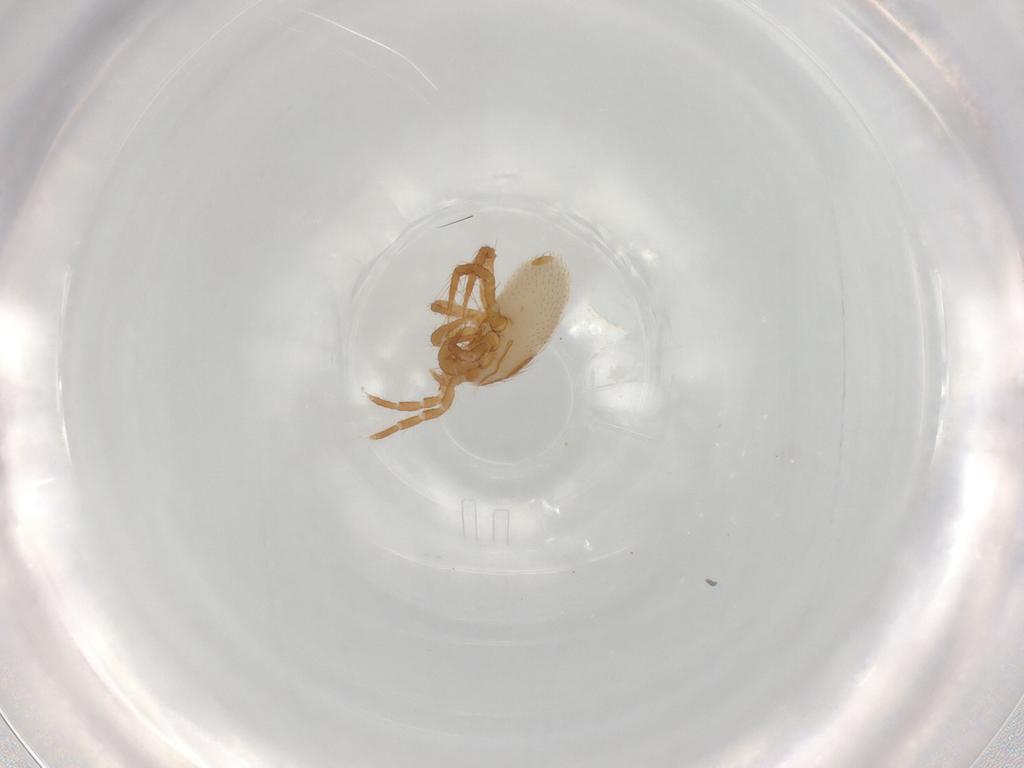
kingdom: Animalia
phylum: Arthropoda
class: Arachnida
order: Mesostigmata
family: Parasitidae
